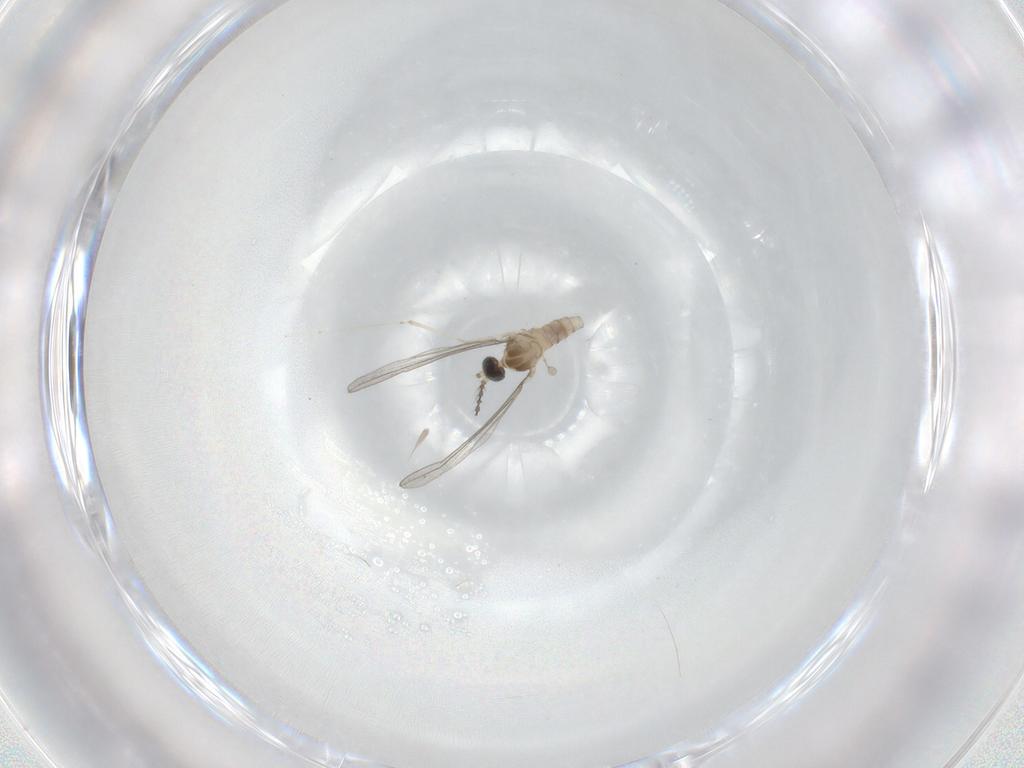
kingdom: Animalia
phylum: Arthropoda
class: Insecta
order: Diptera
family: Cecidomyiidae
